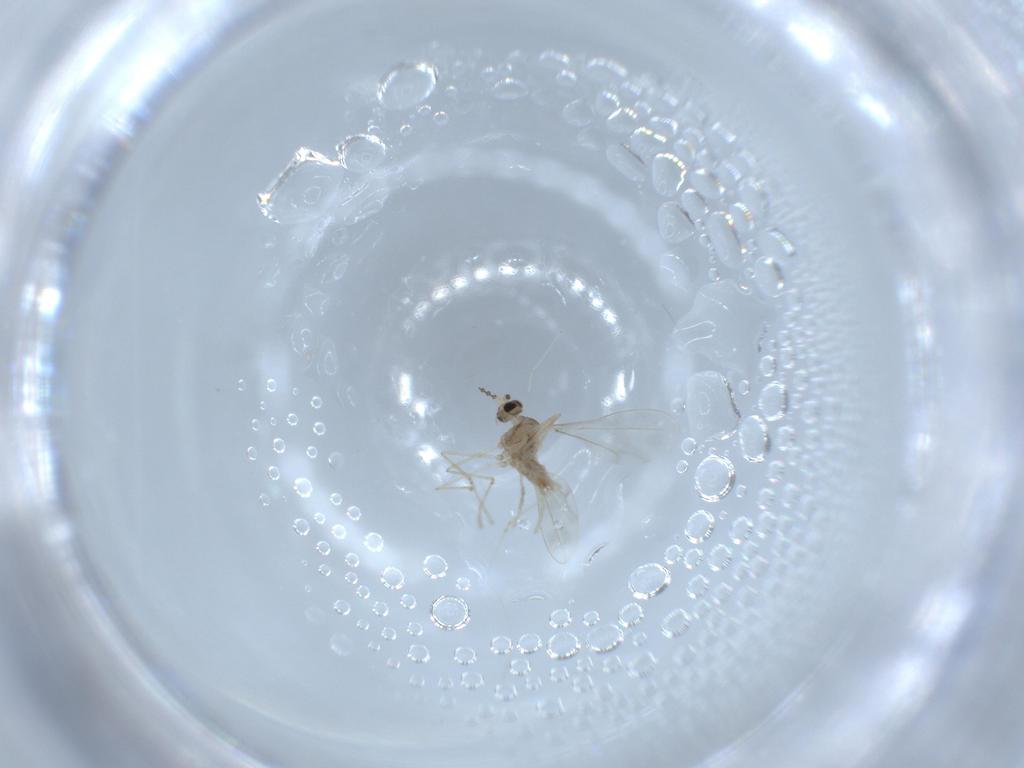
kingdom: Animalia
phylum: Arthropoda
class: Insecta
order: Diptera
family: Cecidomyiidae
